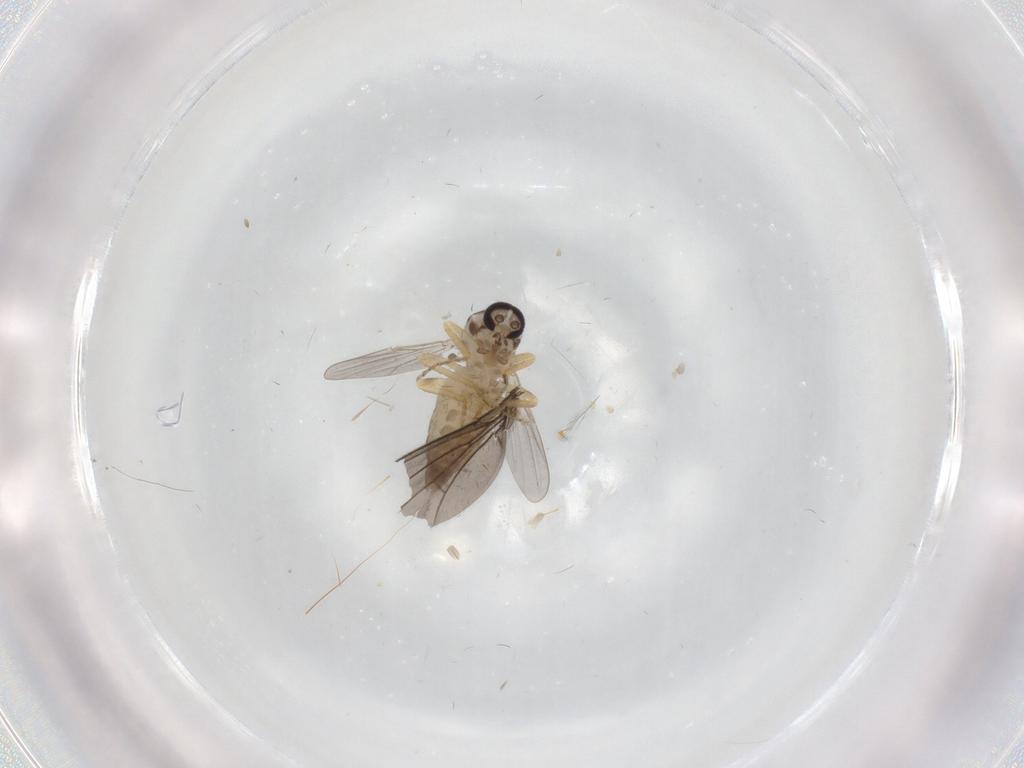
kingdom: Animalia
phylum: Arthropoda
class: Insecta
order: Diptera
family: Ceratopogonidae
